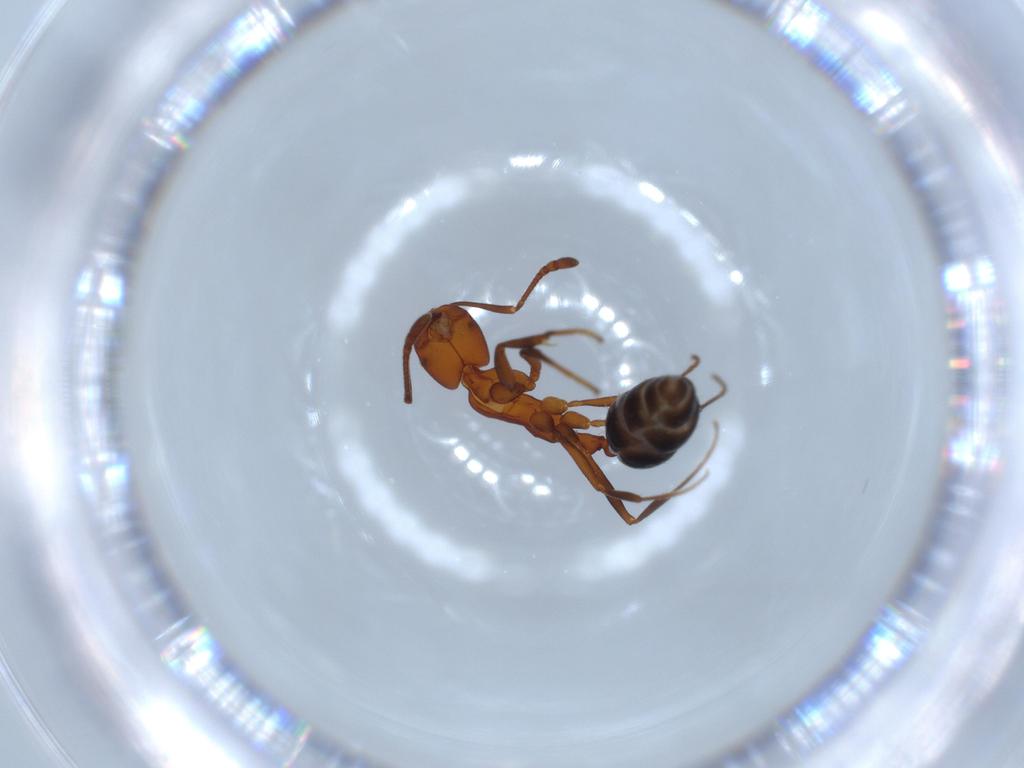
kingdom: Animalia
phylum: Arthropoda
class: Insecta
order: Hymenoptera
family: Formicidae
